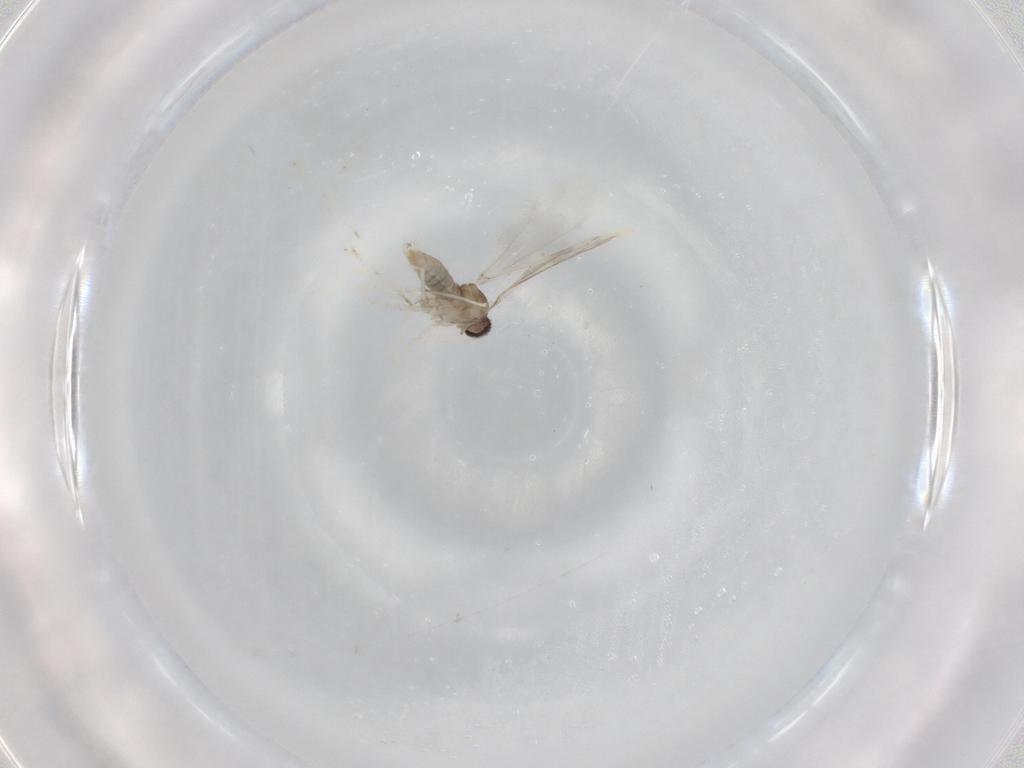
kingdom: Animalia
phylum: Arthropoda
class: Insecta
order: Diptera
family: Cecidomyiidae
